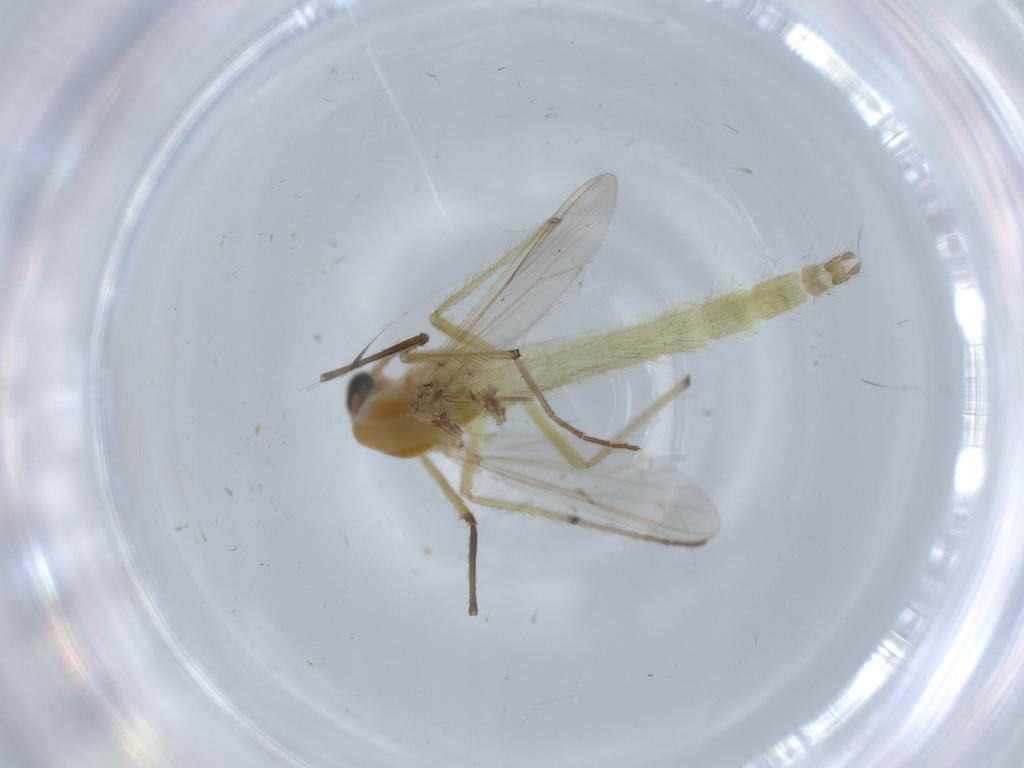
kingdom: Animalia
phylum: Arthropoda
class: Insecta
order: Diptera
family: Chironomidae
